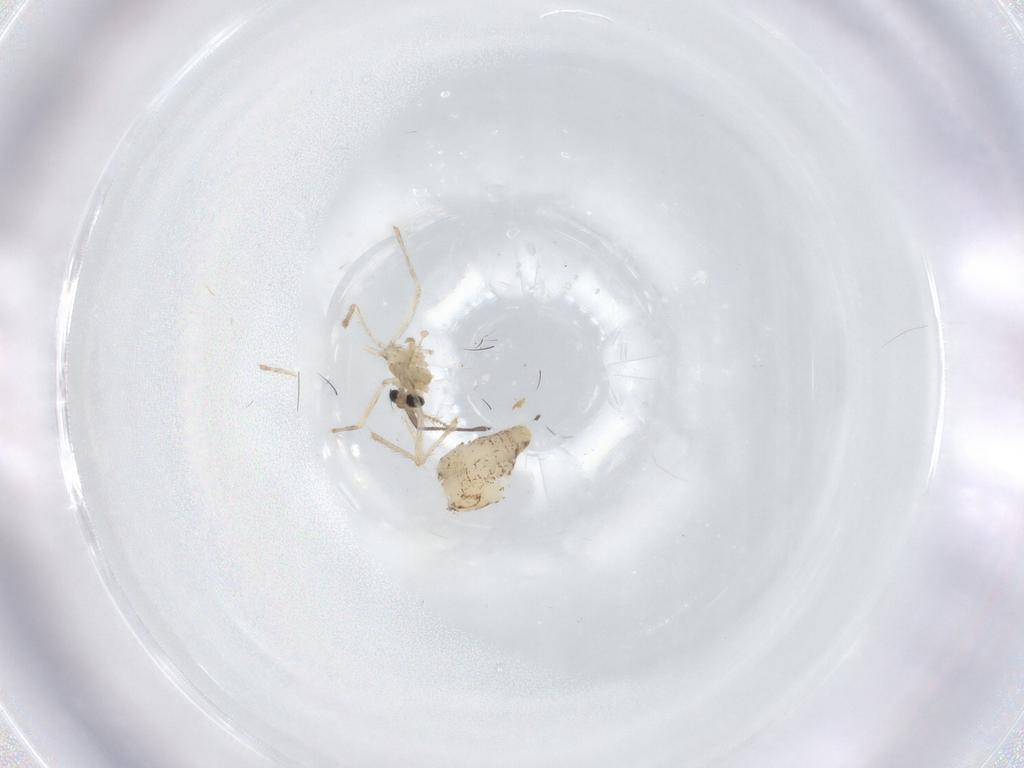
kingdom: Animalia
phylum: Arthropoda
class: Insecta
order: Diptera
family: Chironomidae
